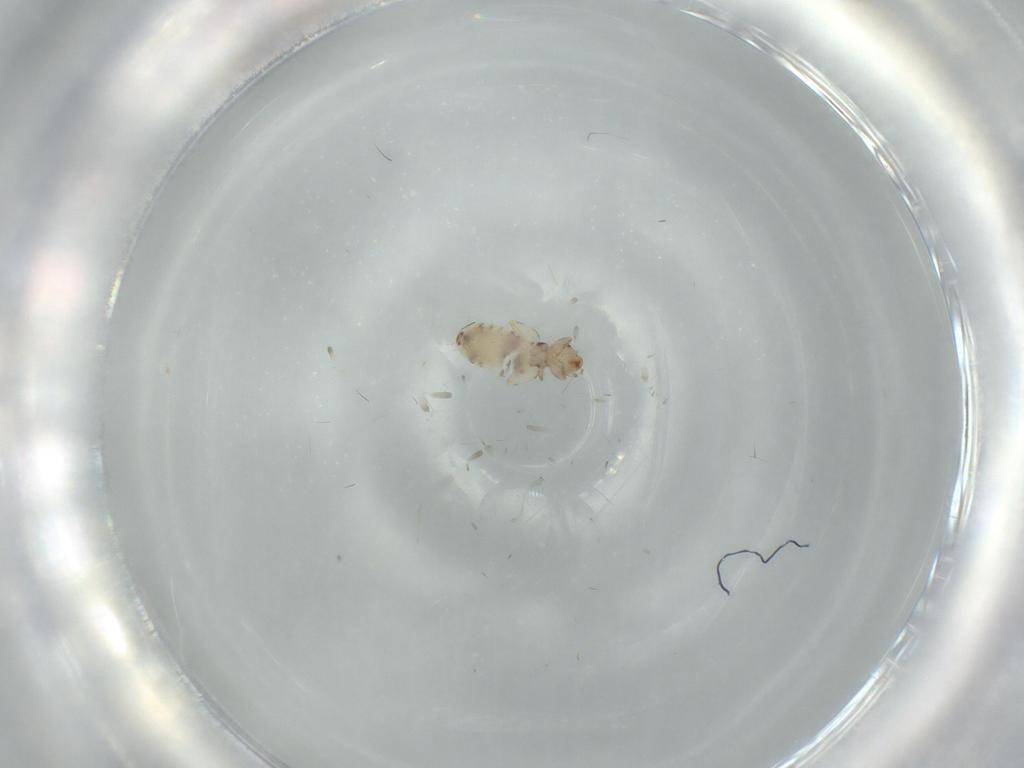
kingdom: Animalia
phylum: Arthropoda
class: Insecta
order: Psocodea
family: Liposcelididae
